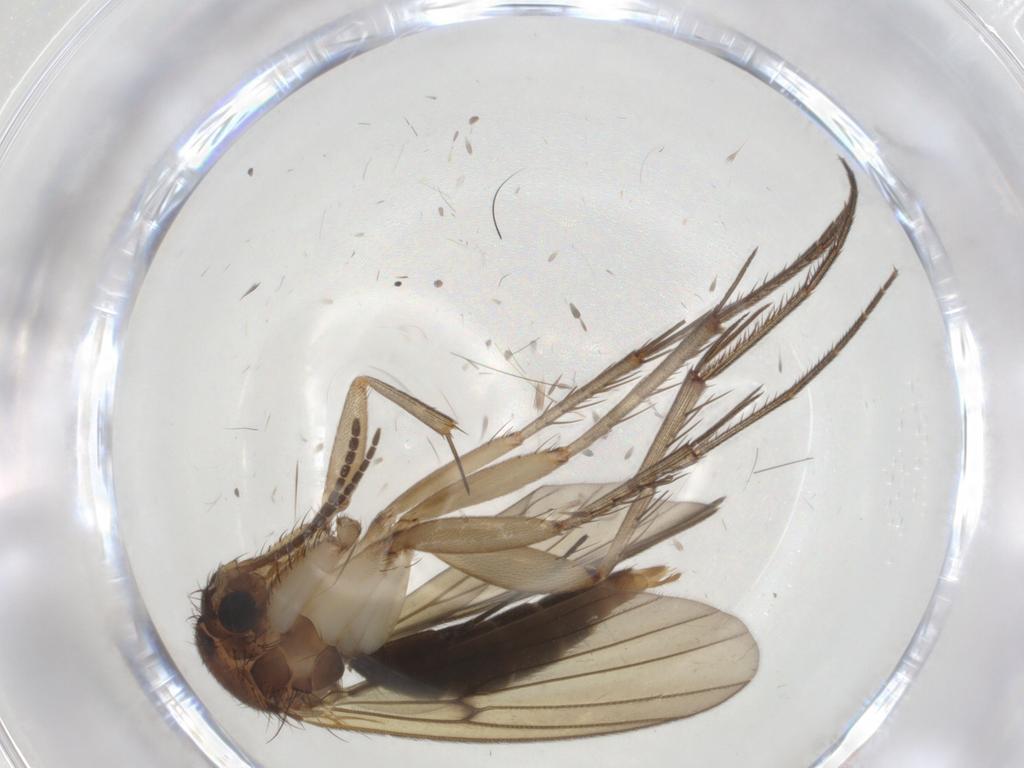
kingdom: Animalia
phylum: Arthropoda
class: Insecta
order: Diptera
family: Mycetophilidae
